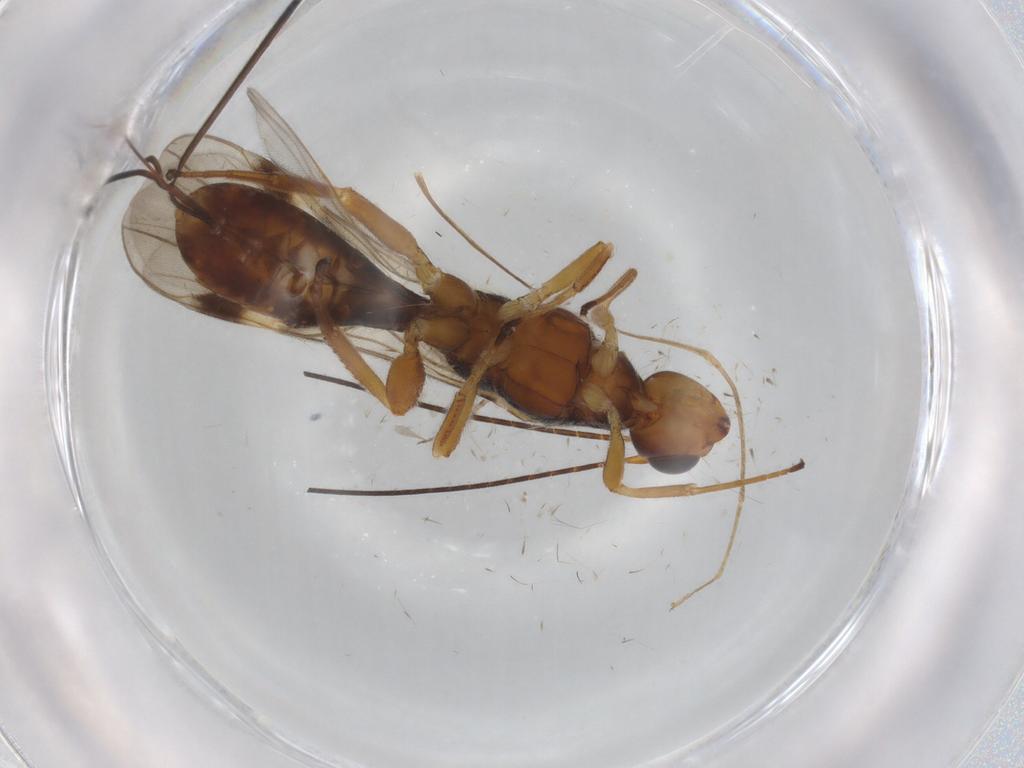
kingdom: Animalia
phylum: Arthropoda
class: Insecta
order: Hymenoptera
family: Braconidae
